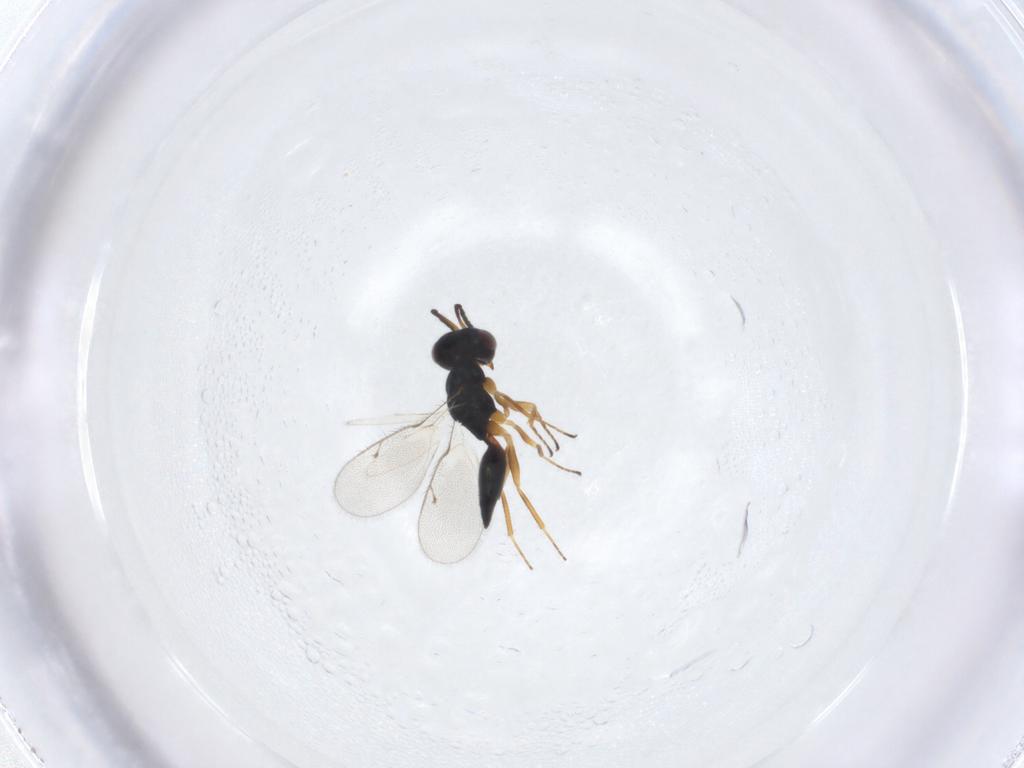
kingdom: Animalia
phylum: Arthropoda
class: Insecta
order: Hymenoptera
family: Pteromalidae
